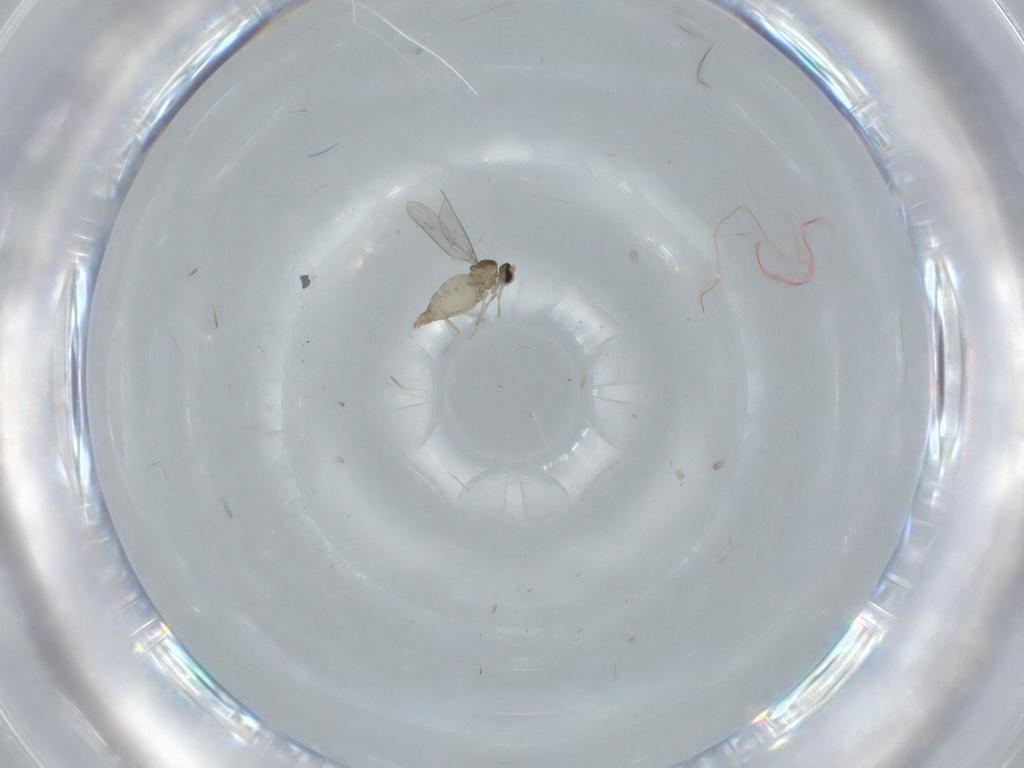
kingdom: Animalia
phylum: Arthropoda
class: Insecta
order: Diptera
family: Cecidomyiidae
